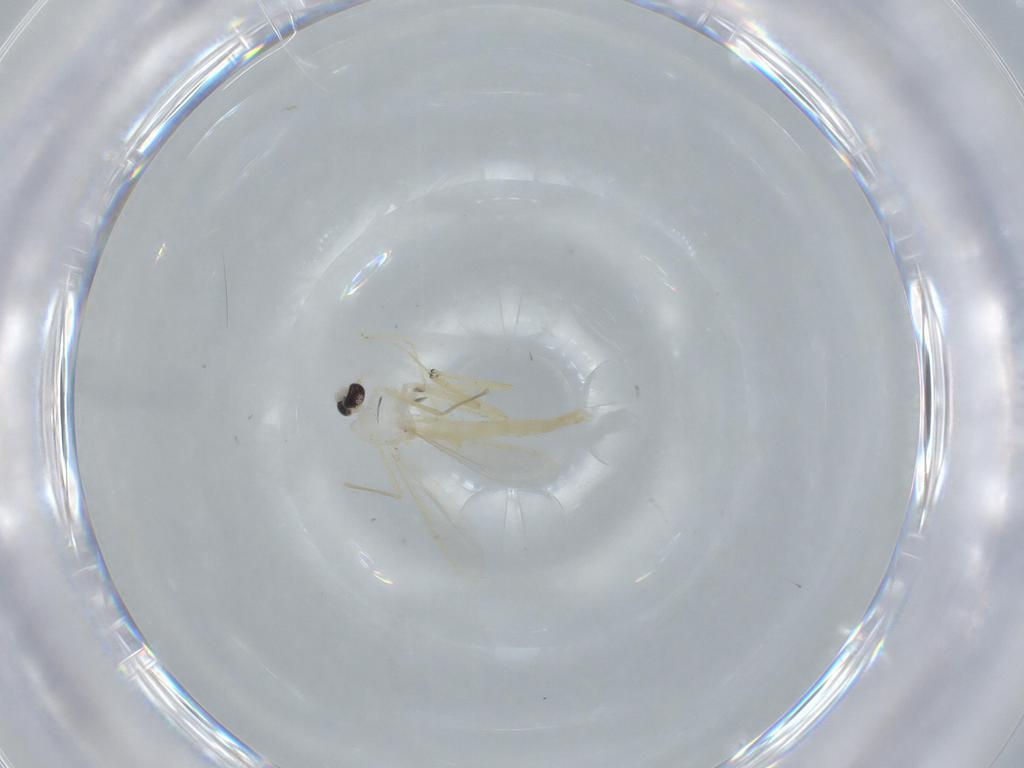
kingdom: Animalia
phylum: Arthropoda
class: Insecta
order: Diptera
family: Chironomidae
